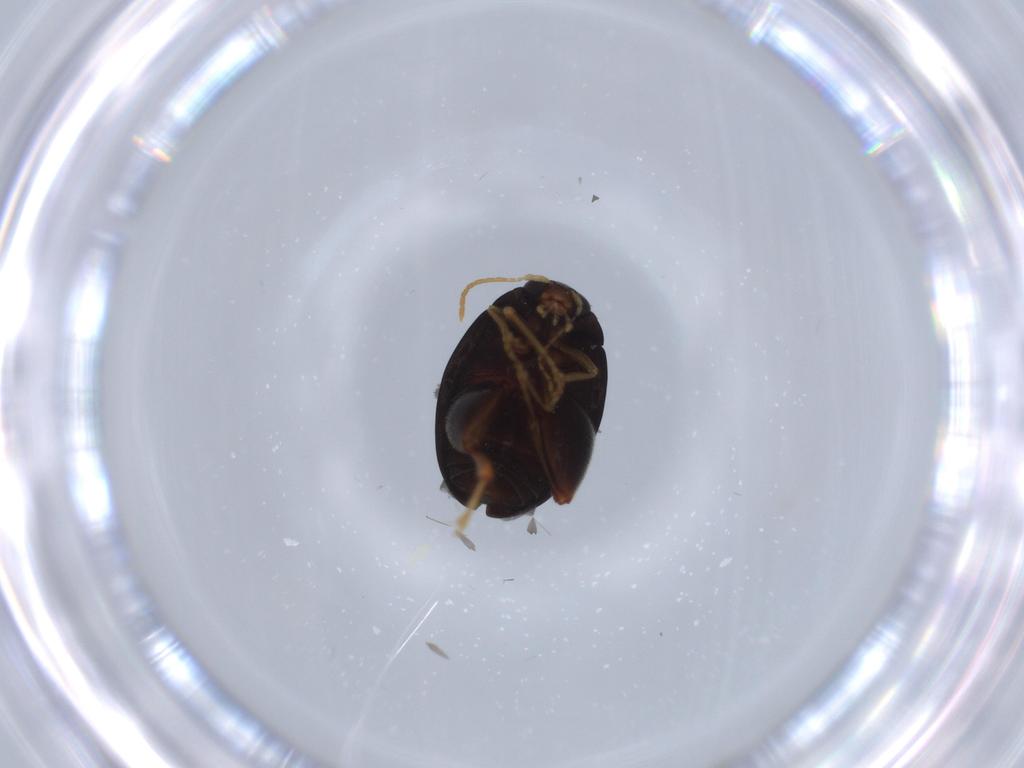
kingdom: Animalia
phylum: Arthropoda
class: Insecta
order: Coleoptera
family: Chrysomelidae
